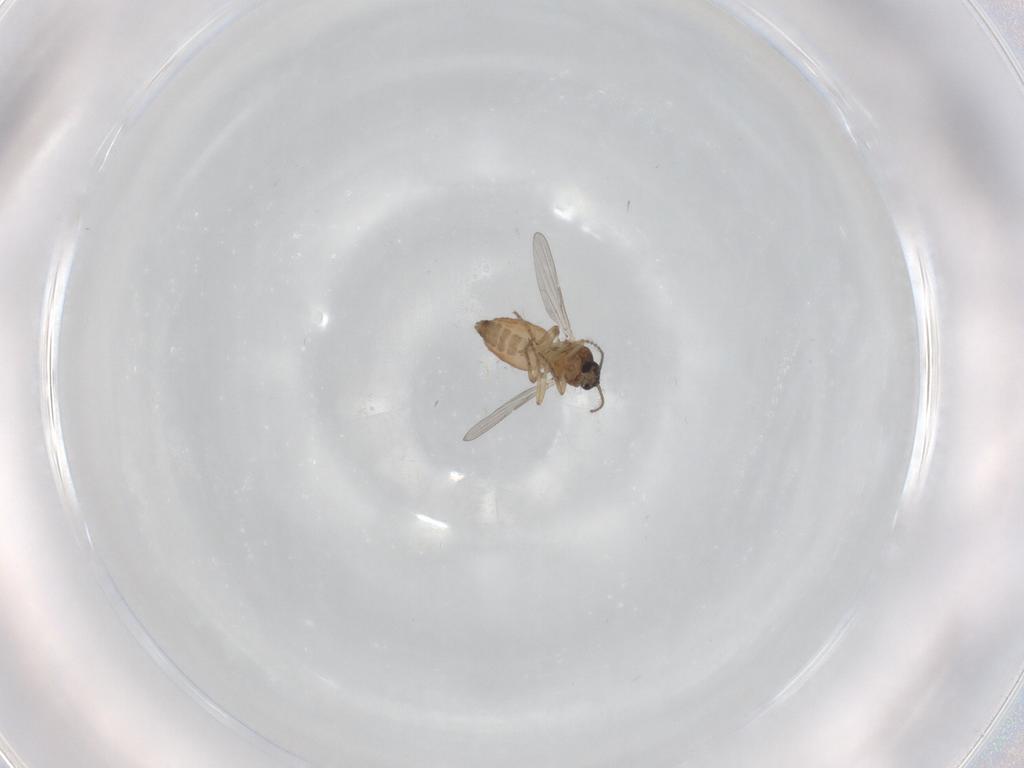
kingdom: Animalia
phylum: Arthropoda
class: Insecta
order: Diptera
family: Ceratopogonidae
